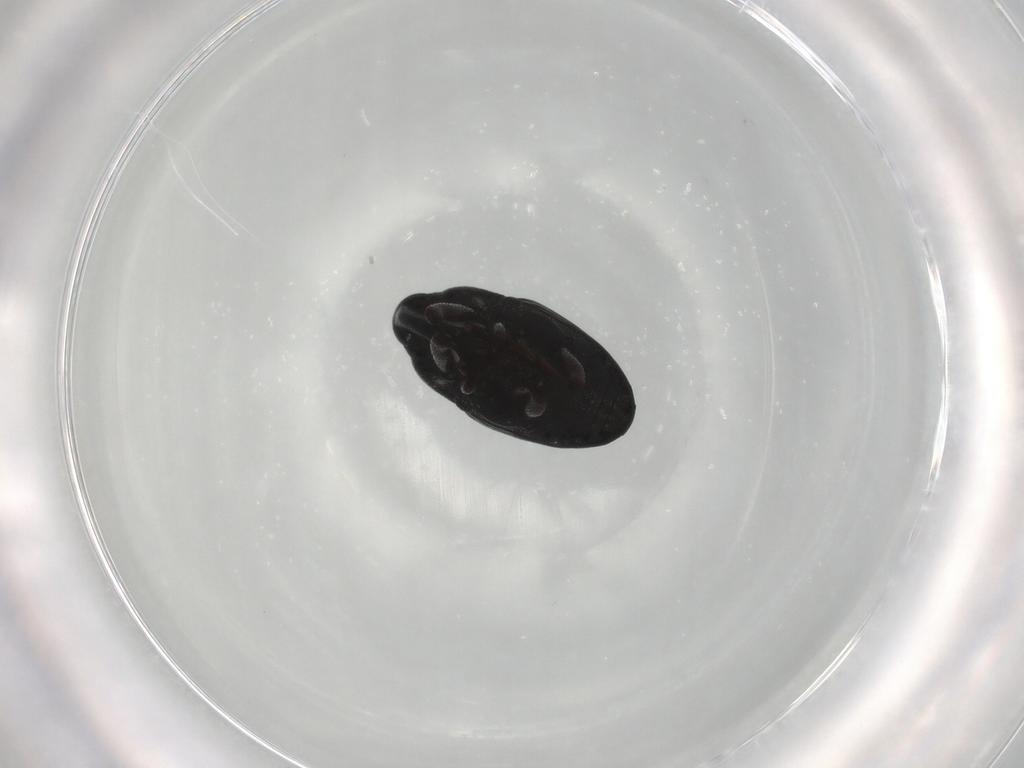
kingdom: Animalia
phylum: Arthropoda
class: Insecta
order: Coleoptera
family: Curculionidae
